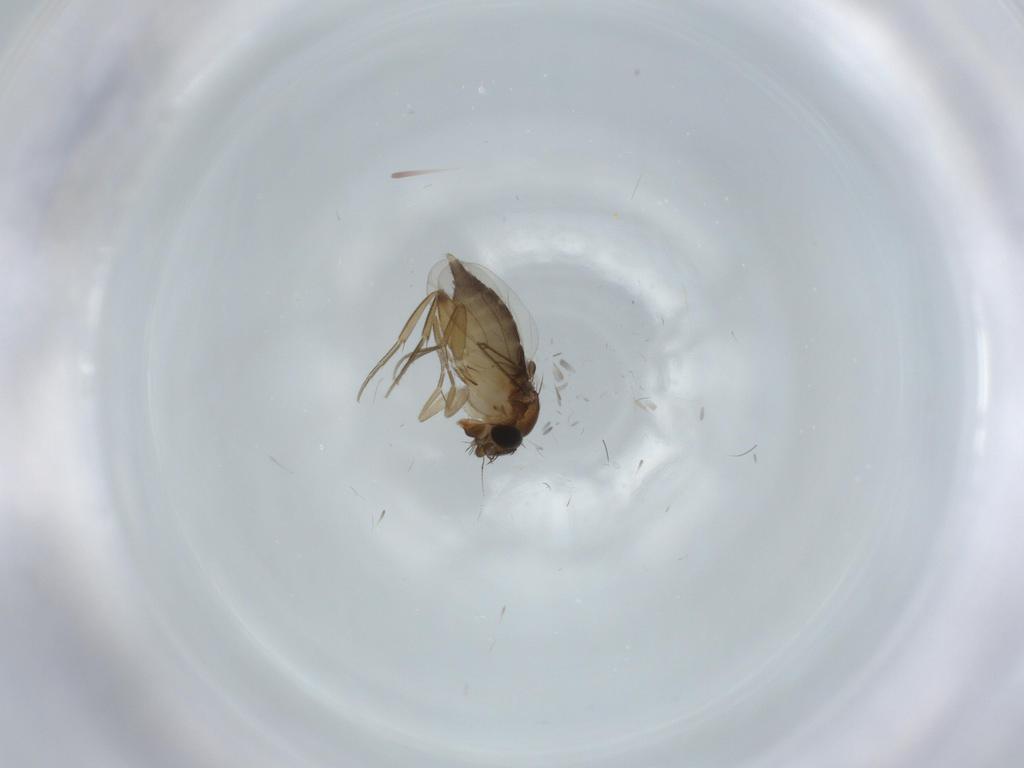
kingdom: Animalia
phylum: Arthropoda
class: Insecta
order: Diptera
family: Phoridae
